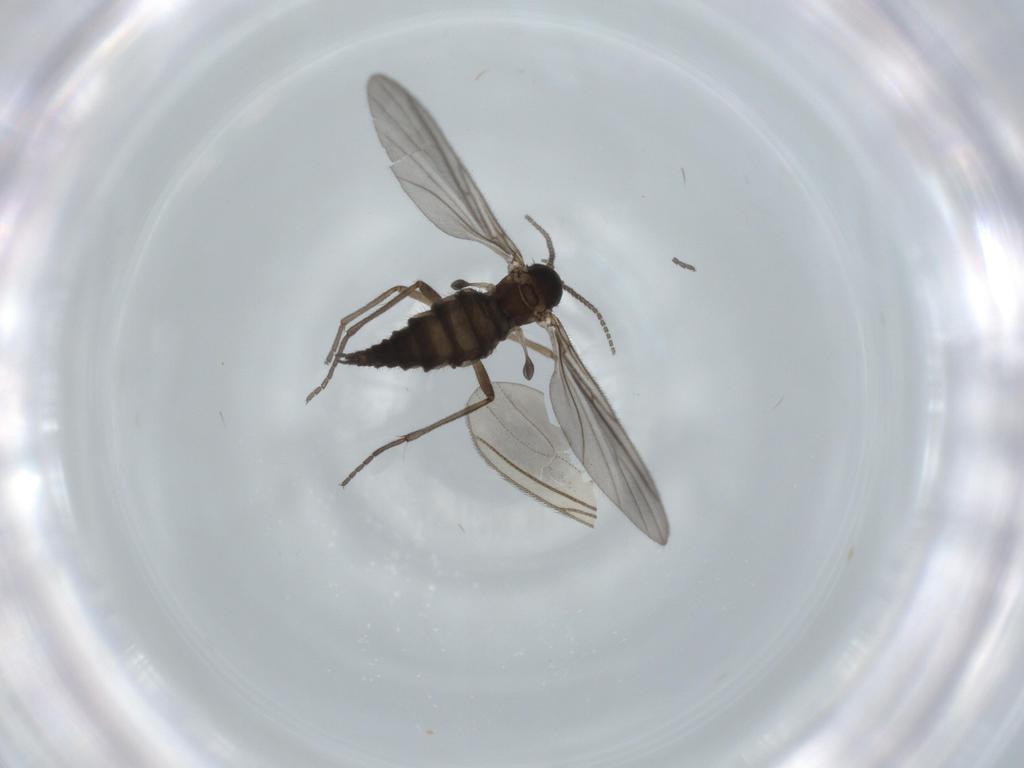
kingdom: Animalia
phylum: Arthropoda
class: Insecta
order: Diptera
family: Sciaridae
